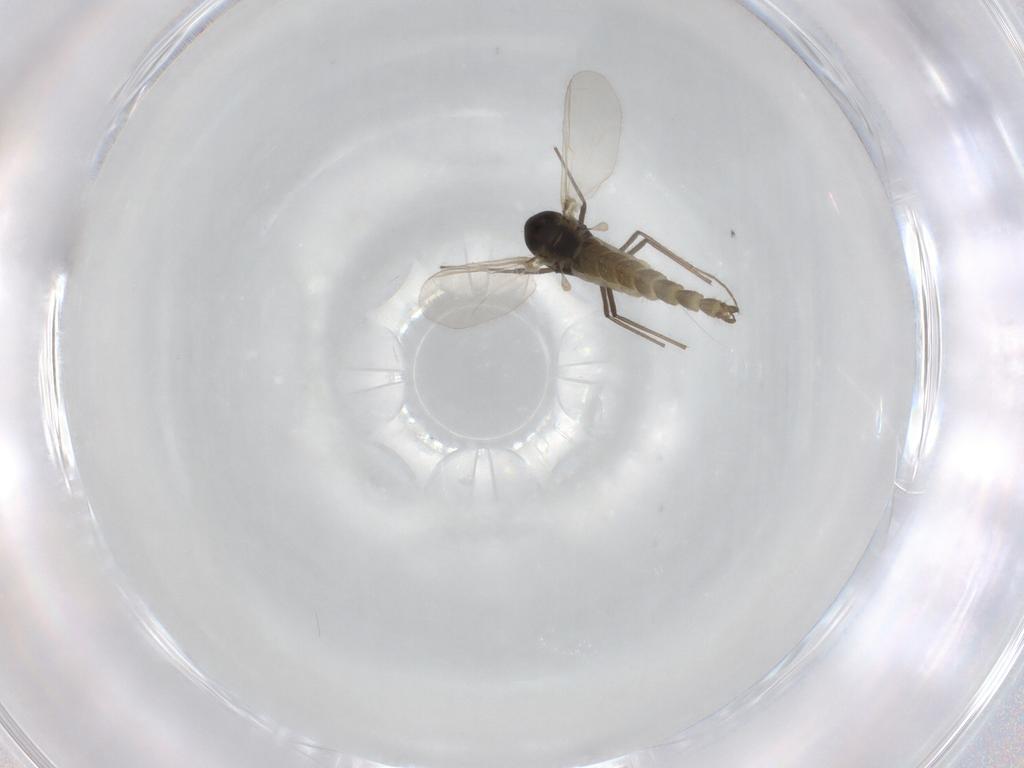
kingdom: Animalia
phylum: Arthropoda
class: Insecta
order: Diptera
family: Chironomidae
